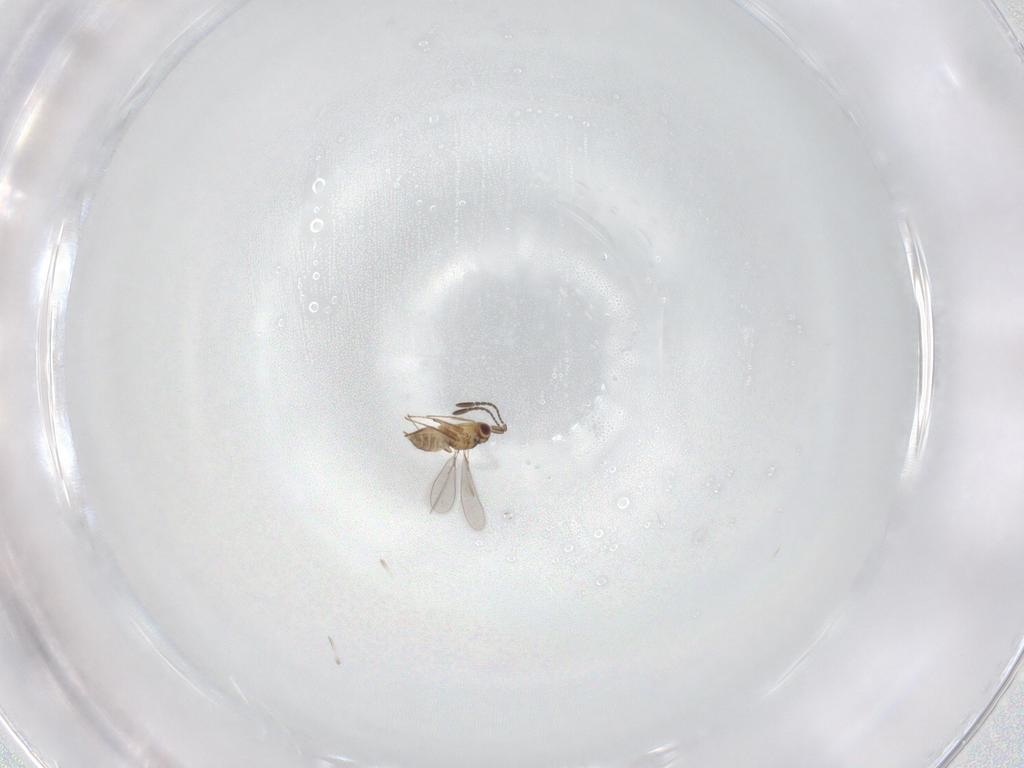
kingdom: Animalia
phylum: Arthropoda
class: Insecta
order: Hymenoptera
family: Mymaridae
